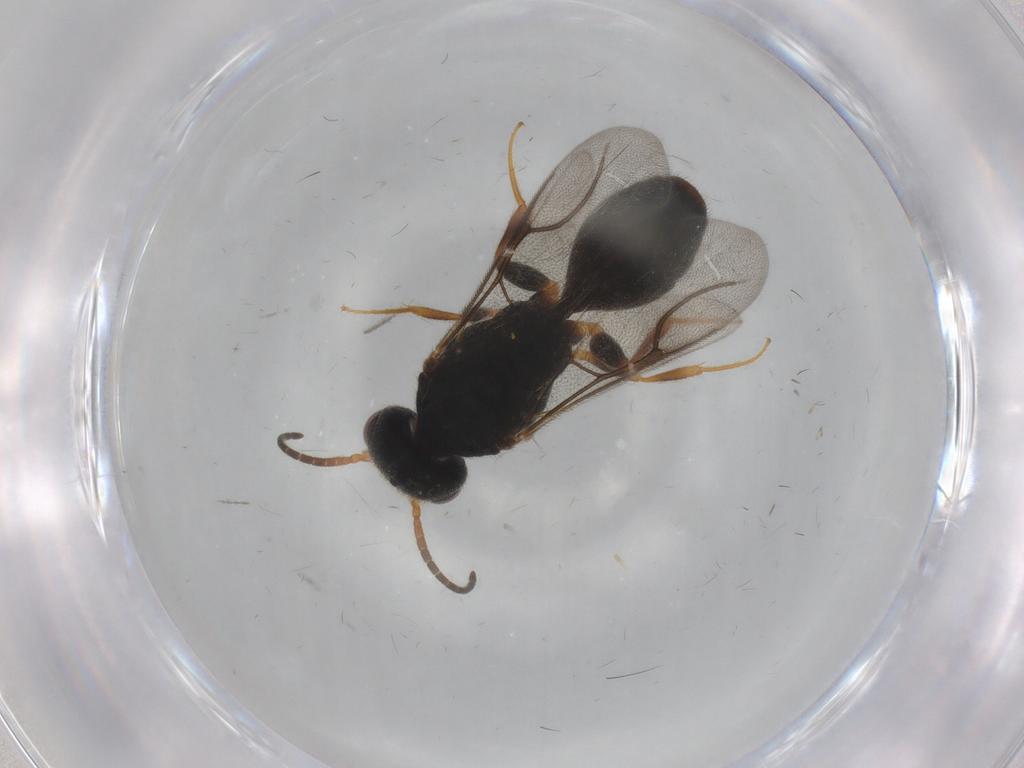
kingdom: Animalia
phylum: Arthropoda
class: Insecta
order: Hymenoptera
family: Bethylidae
